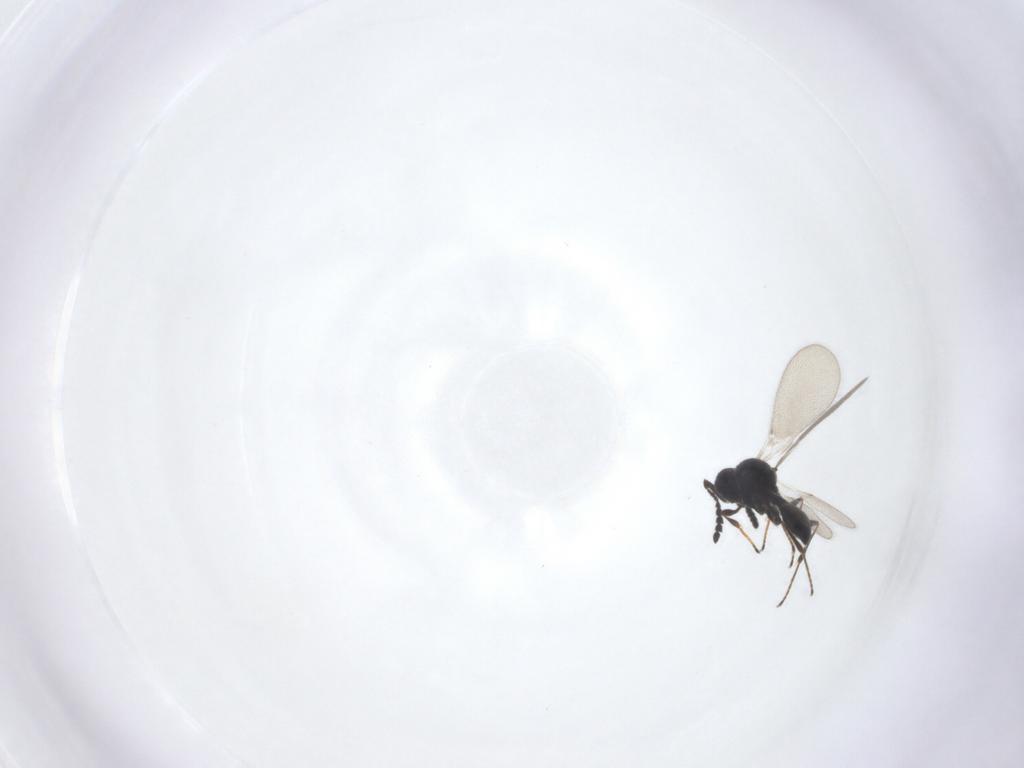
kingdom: Animalia
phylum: Arthropoda
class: Insecta
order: Hymenoptera
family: Platygastridae
